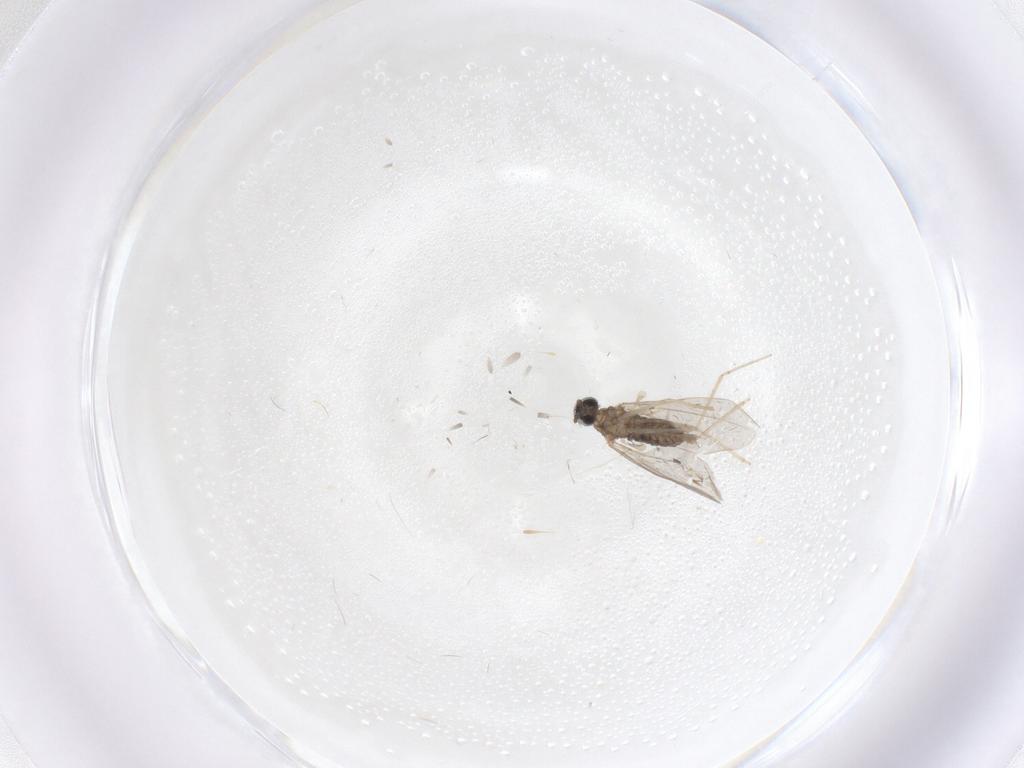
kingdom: Animalia
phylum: Arthropoda
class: Insecta
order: Diptera
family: Cecidomyiidae
